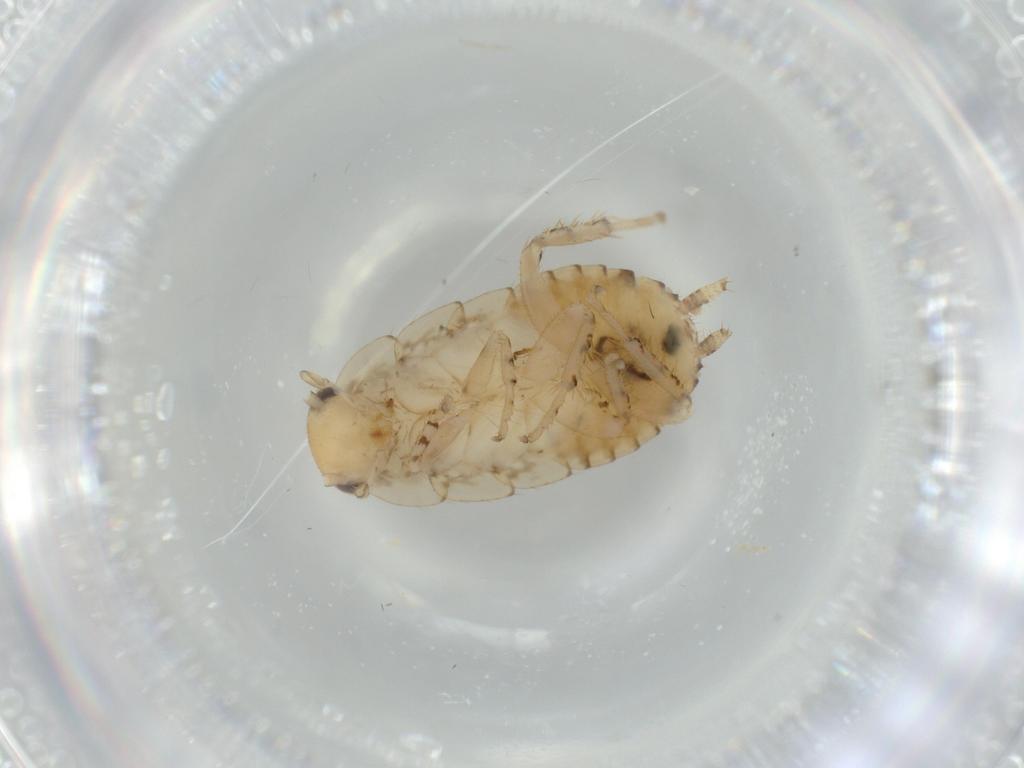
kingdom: Animalia
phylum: Arthropoda
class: Insecta
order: Blattodea
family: Ectobiidae
